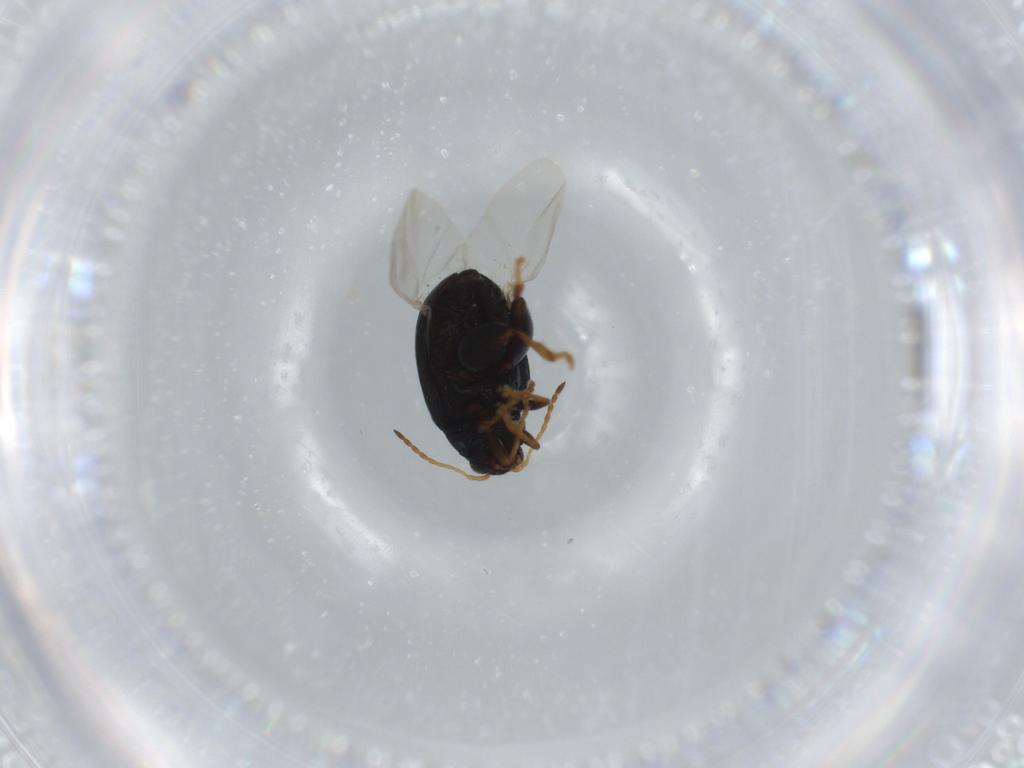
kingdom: Animalia
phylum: Arthropoda
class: Insecta
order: Coleoptera
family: Chrysomelidae
